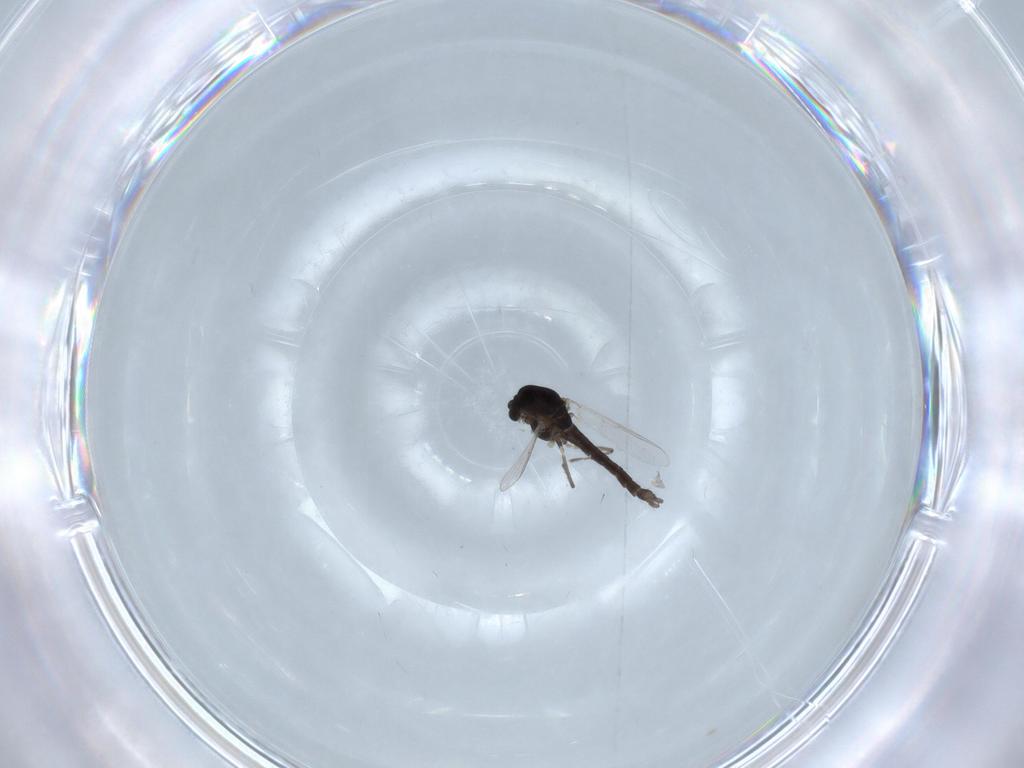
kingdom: Animalia
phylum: Arthropoda
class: Insecta
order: Diptera
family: Chironomidae
